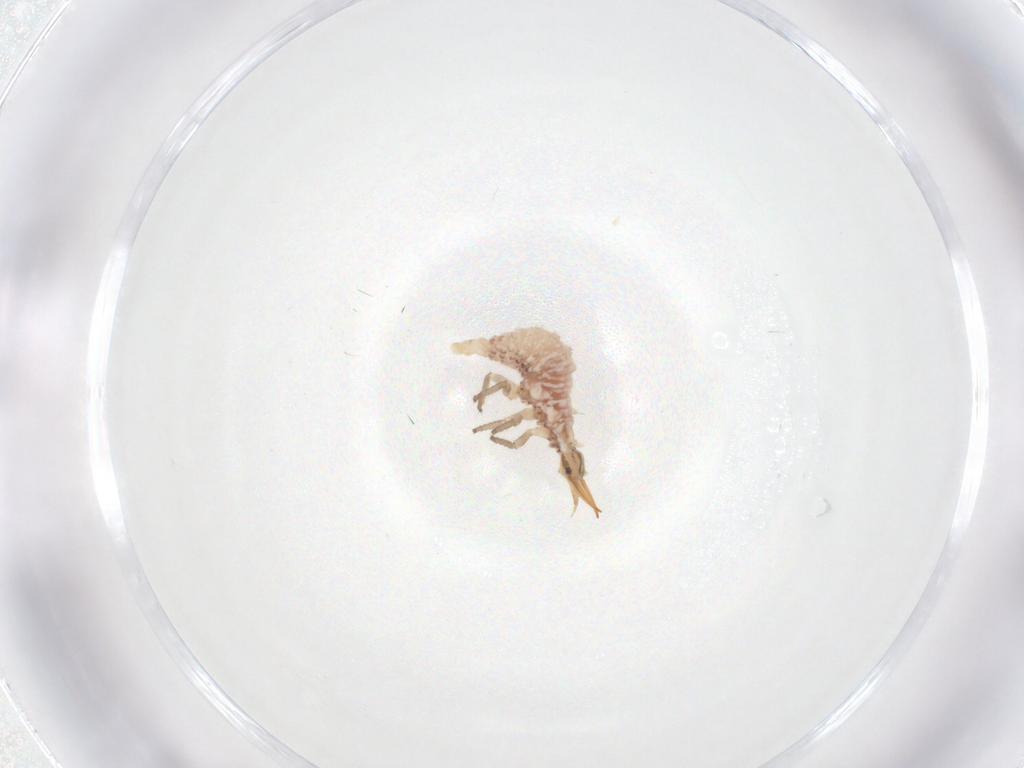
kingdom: Animalia
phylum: Arthropoda
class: Insecta
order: Neuroptera
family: Chrysopidae
